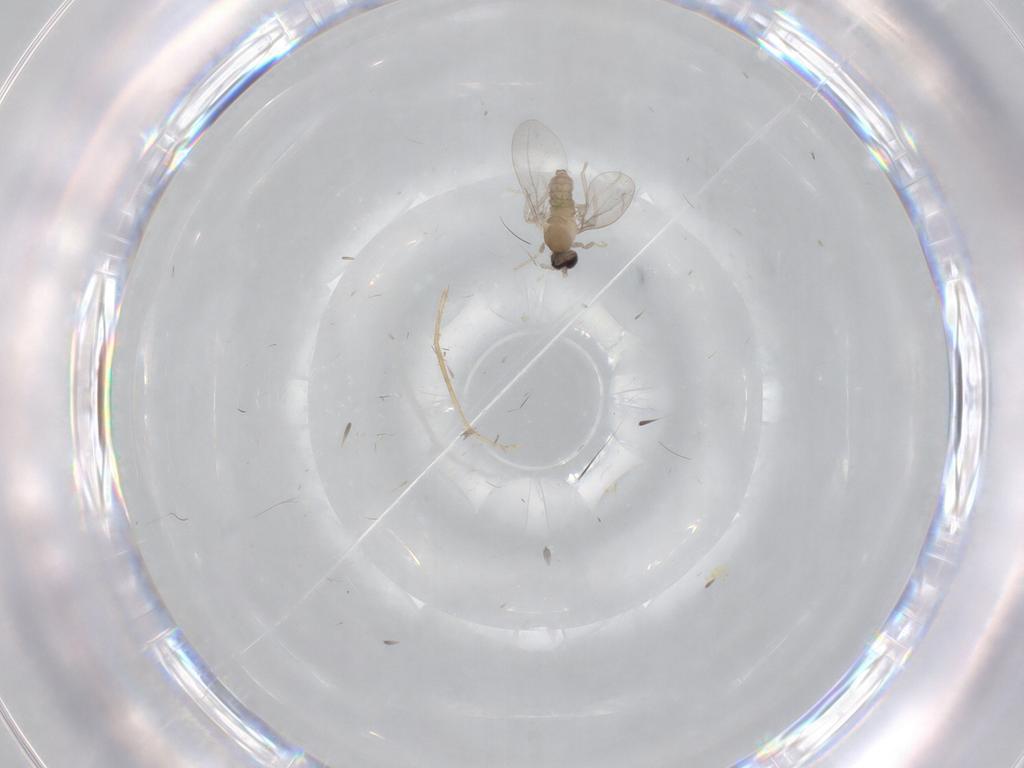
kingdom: Animalia
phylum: Arthropoda
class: Insecta
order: Diptera
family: Cecidomyiidae
